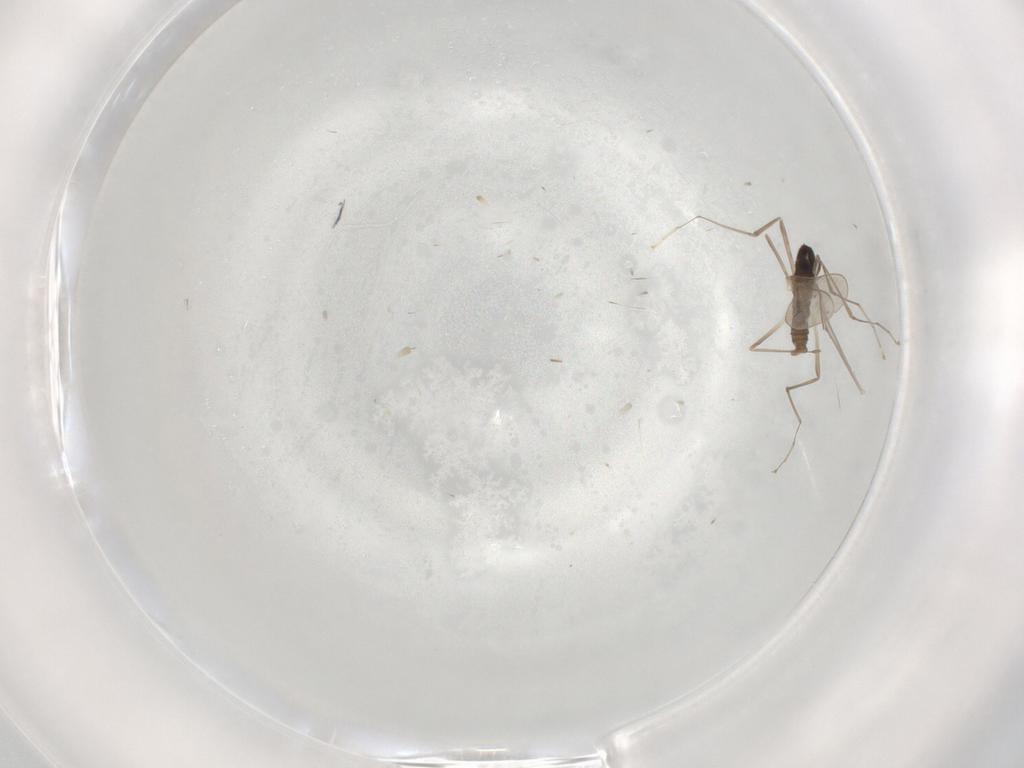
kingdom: Animalia
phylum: Arthropoda
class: Insecta
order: Diptera
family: Cecidomyiidae
